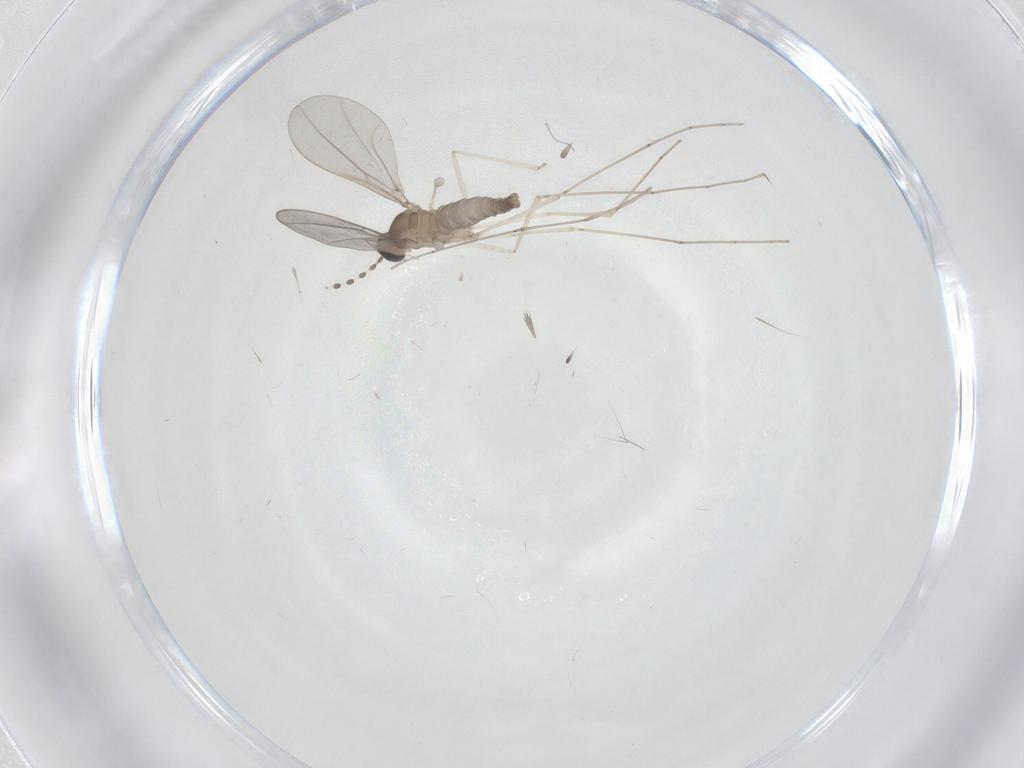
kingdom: Animalia
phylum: Arthropoda
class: Insecta
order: Diptera
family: Cecidomyiidae
